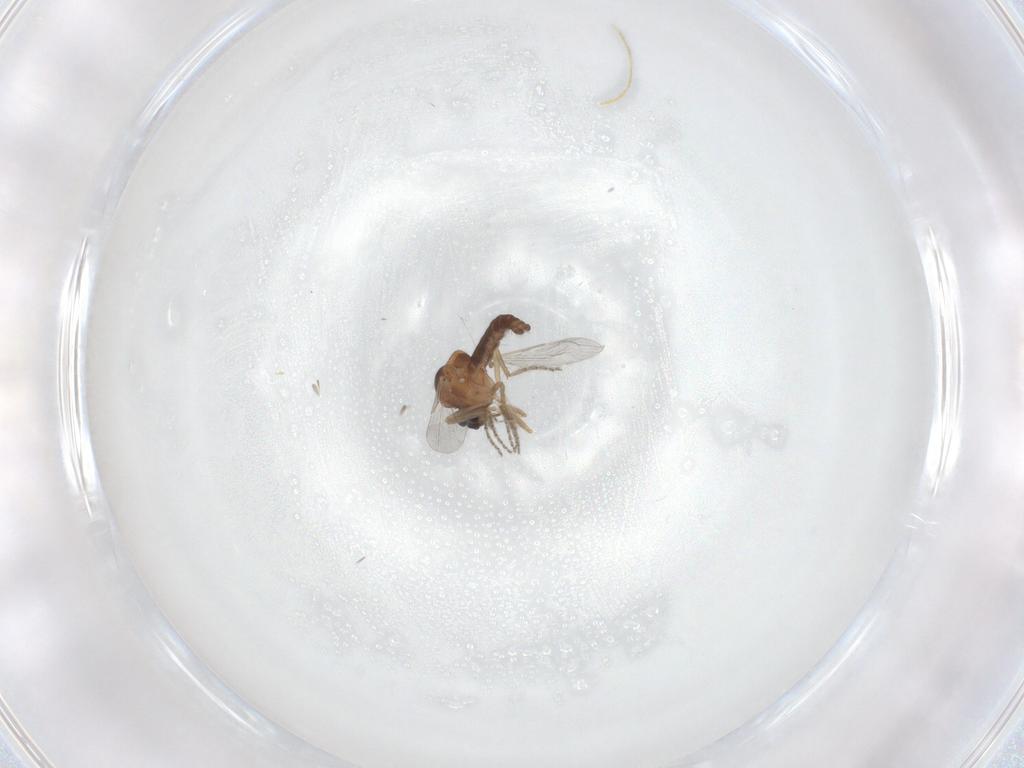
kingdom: Animalia
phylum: Arthropoda
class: Insecta
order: Diptera
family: Ceratopogonidae
